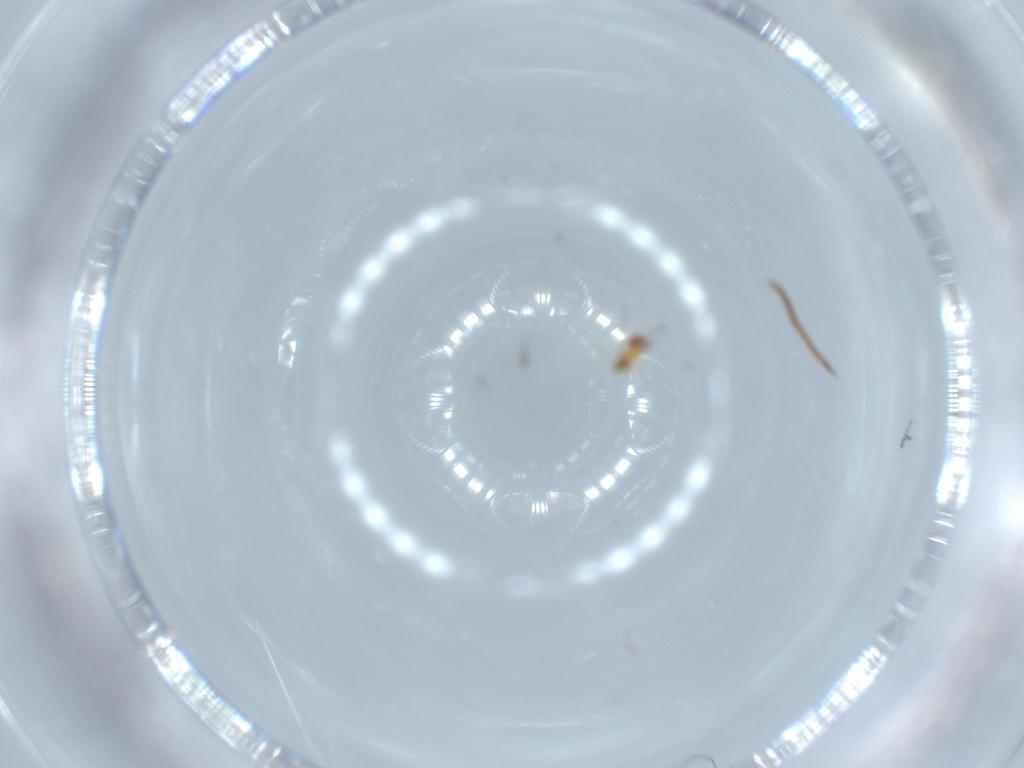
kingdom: Animalia
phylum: Arthropoda
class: Insecta
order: Hymenoptera
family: Trichogrammatidae
